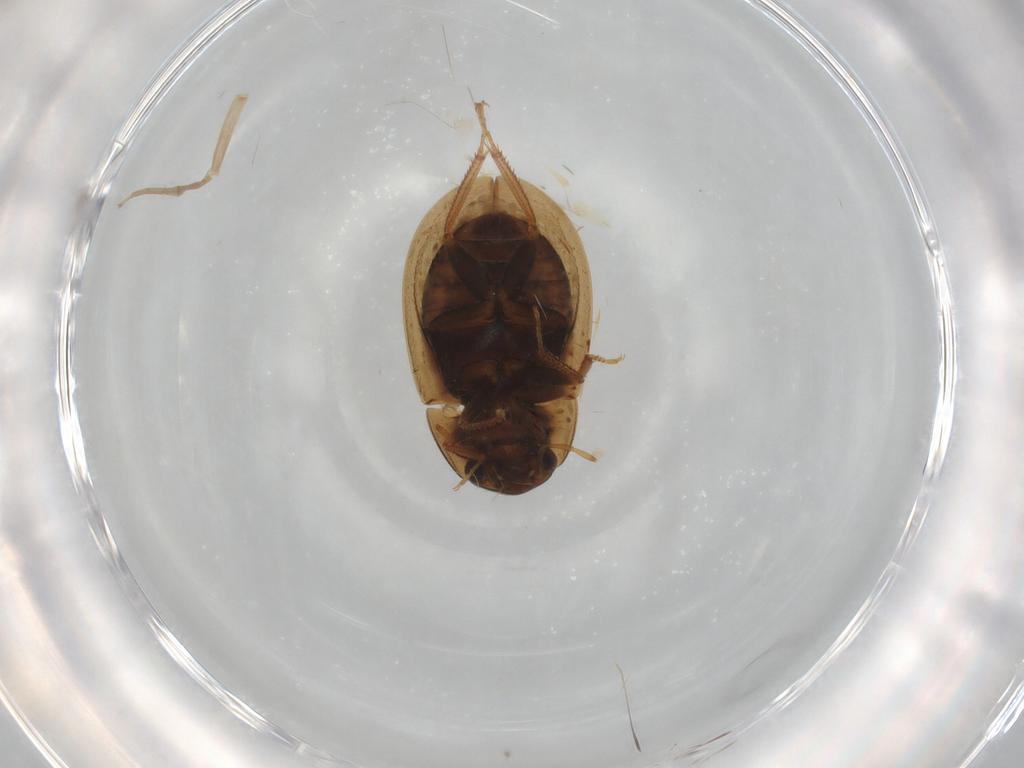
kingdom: Animalia
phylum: Arthropoda
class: Insecta
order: Coleoptera
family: Hydrophilidae
